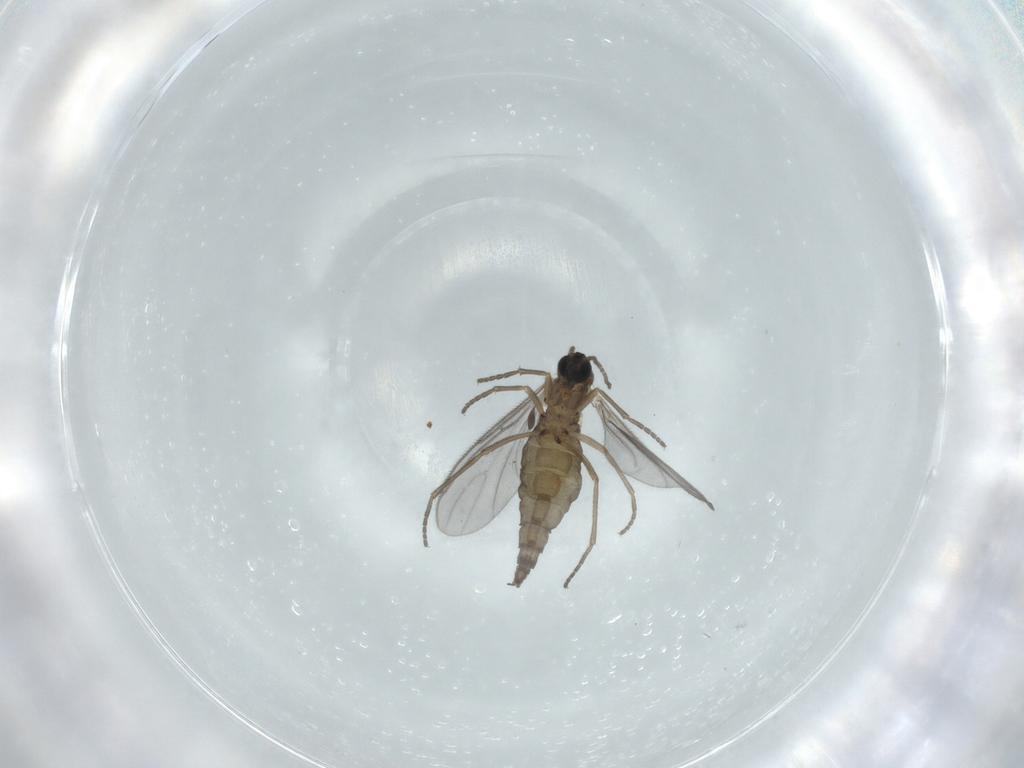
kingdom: Animalia
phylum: Arthropoda
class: Insecta
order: Diptera
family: Sciaridae
